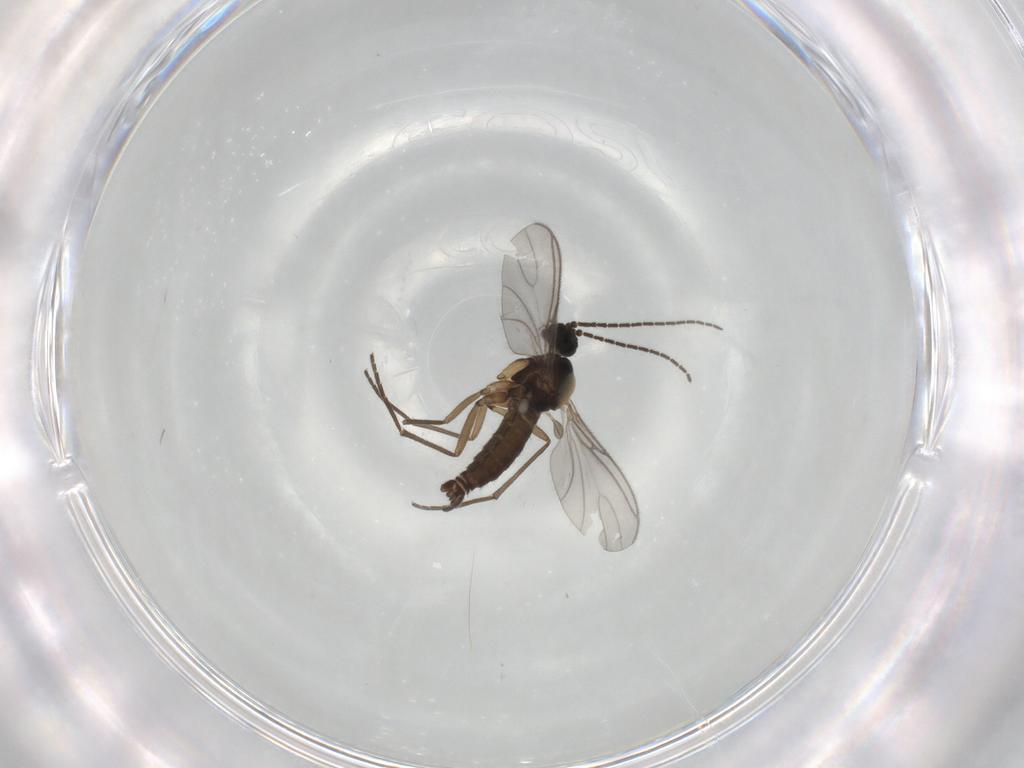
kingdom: Animalia
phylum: Arthropoda
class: Insecta
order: Diptera
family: Sciaridae
